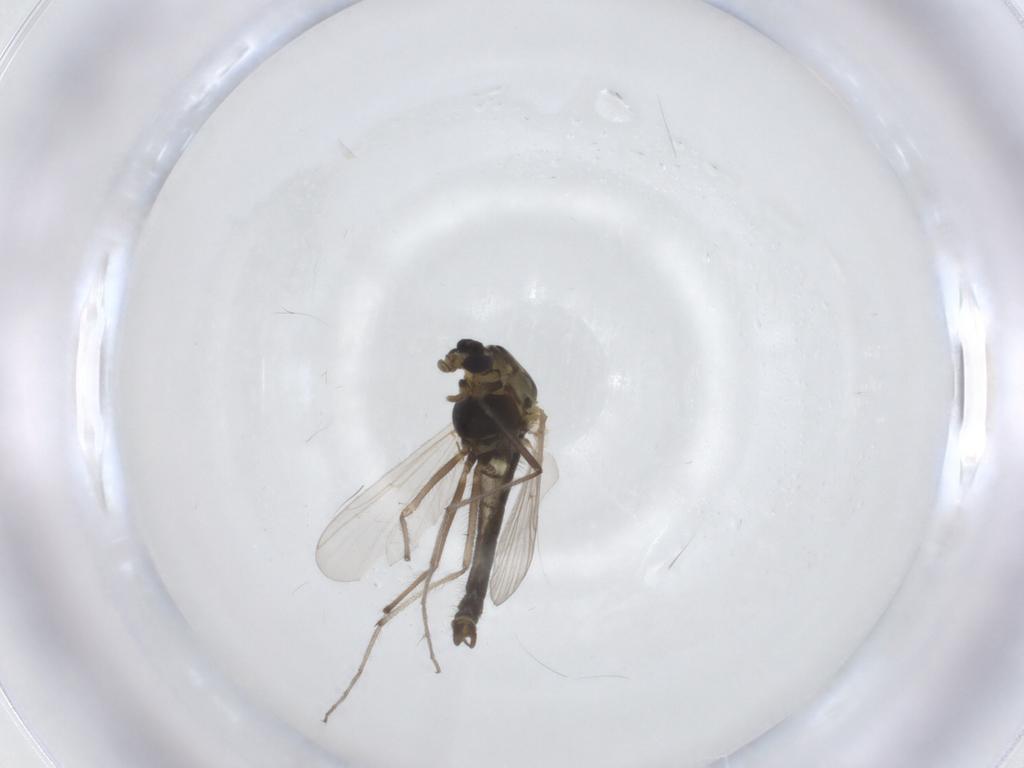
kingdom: Animalia
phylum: Arthropoda
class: Insecta
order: Diptera
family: Chironomidae
